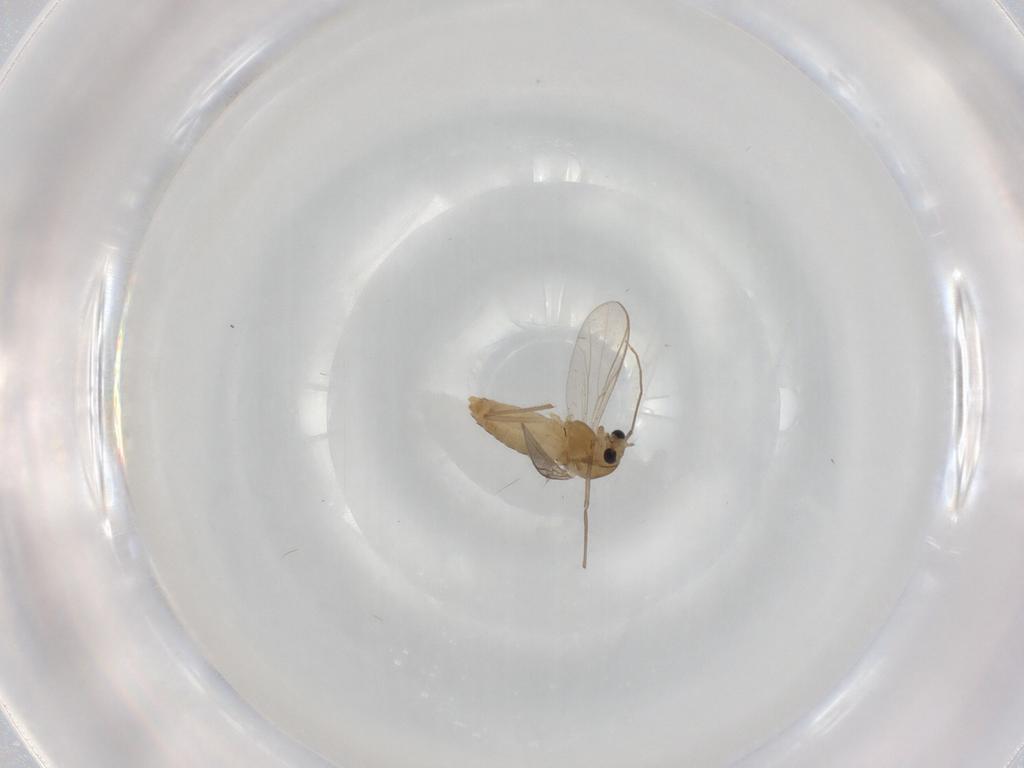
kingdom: Animalia
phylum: Arthropoda
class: Insecta
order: Diptera
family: Chironomidae
